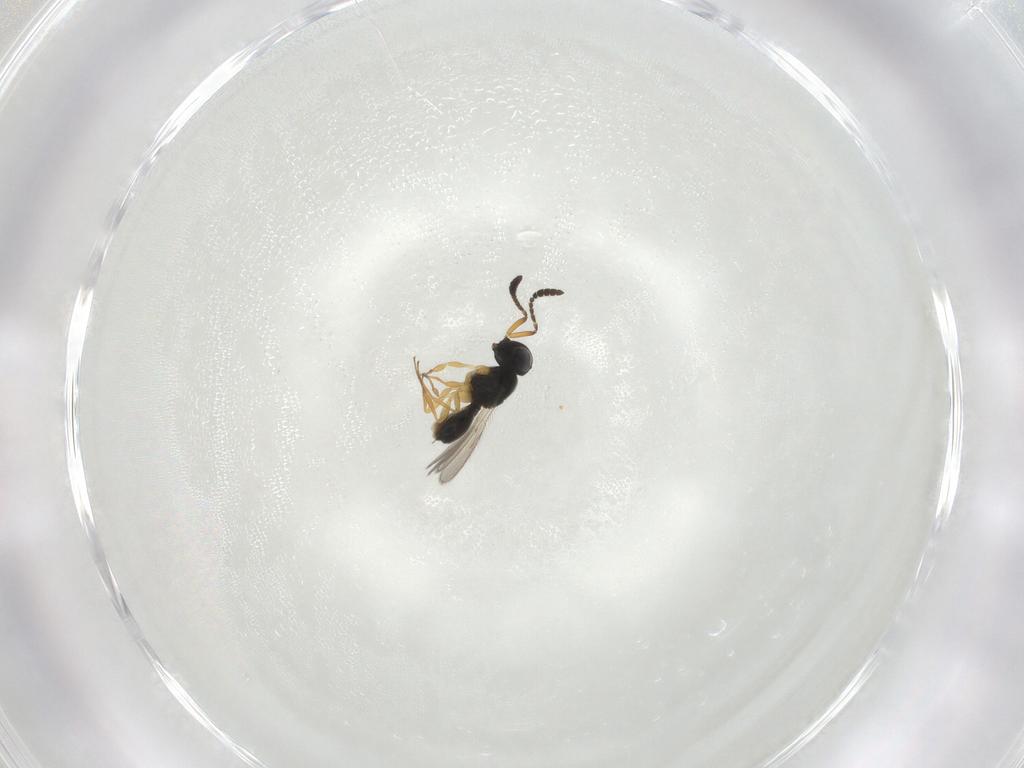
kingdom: Animalia
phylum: Arthropoda
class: Insecta
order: Hymenoptera
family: Scelionidae
